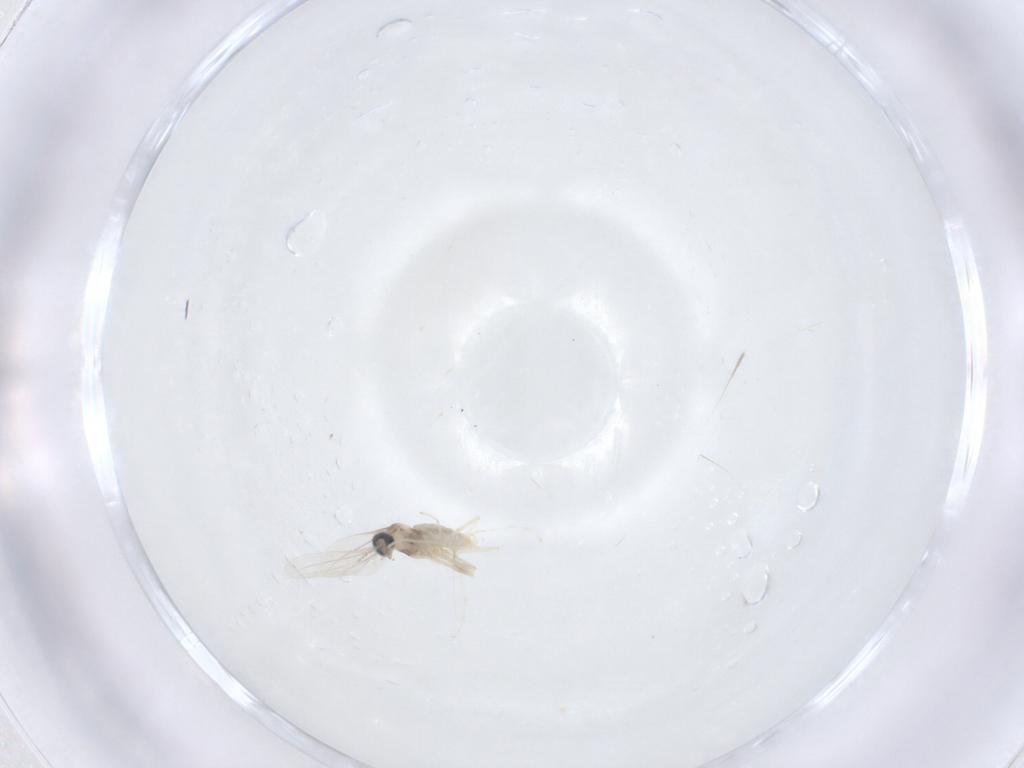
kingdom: Animalia
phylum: Arthropoda
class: Insecta
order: Diptera
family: Cecidomyiidae
